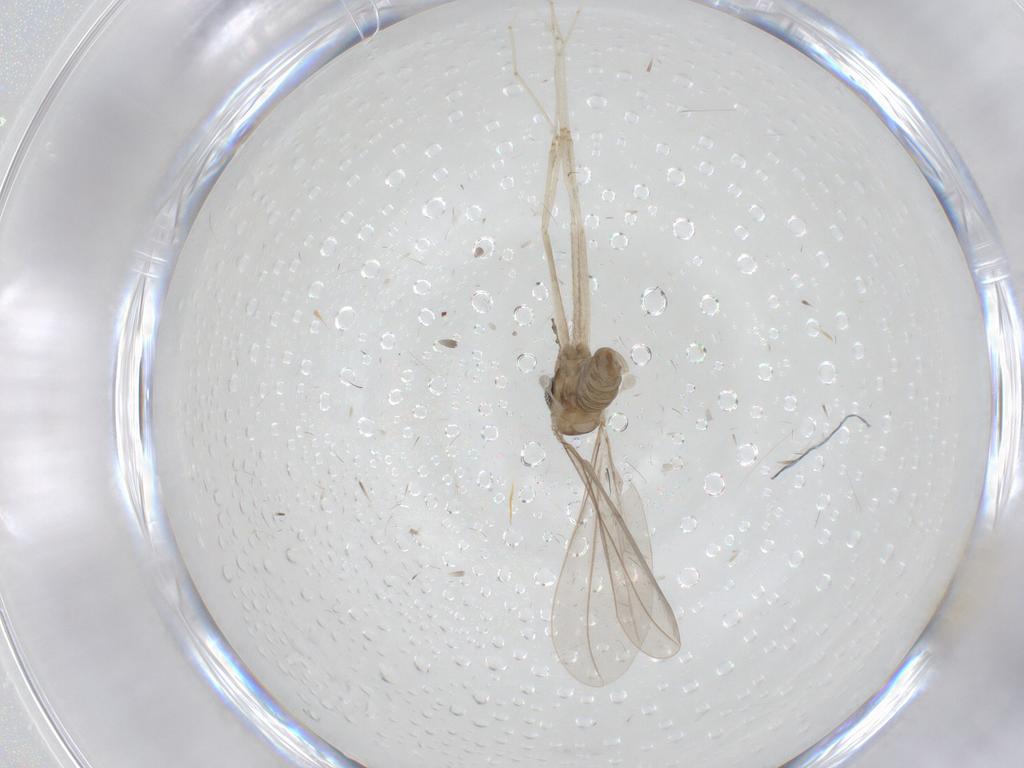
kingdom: Animalia
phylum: Arthropoda
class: Insecta
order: Diptera
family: Cecidomyiidae
